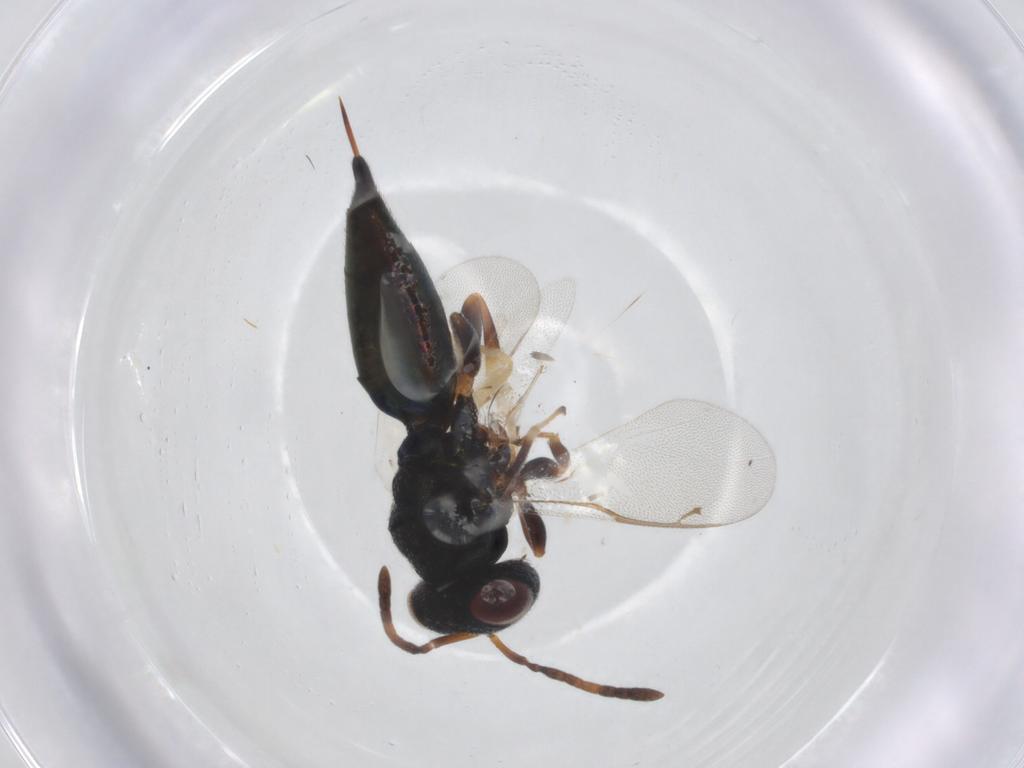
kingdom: Animalia
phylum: Arthropoda
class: Insecta
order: Hymenoptera
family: Pteromalidae
